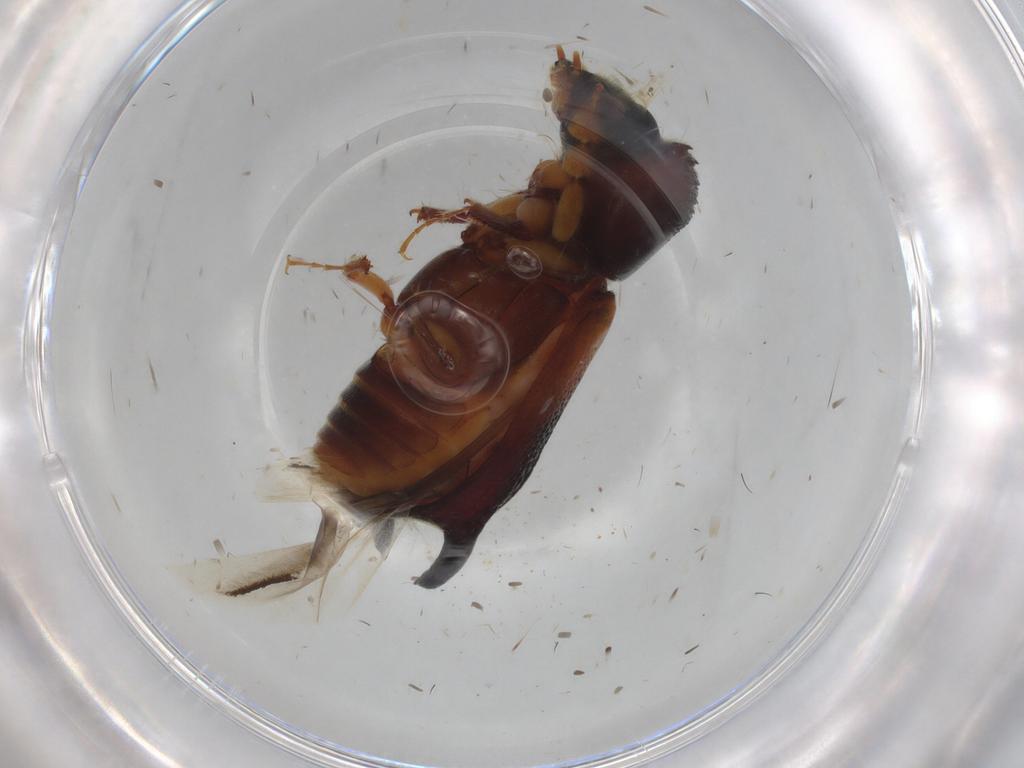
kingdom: Animalia
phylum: Arthropoda
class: Insecta
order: Coleoptera
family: Bostrichidae
